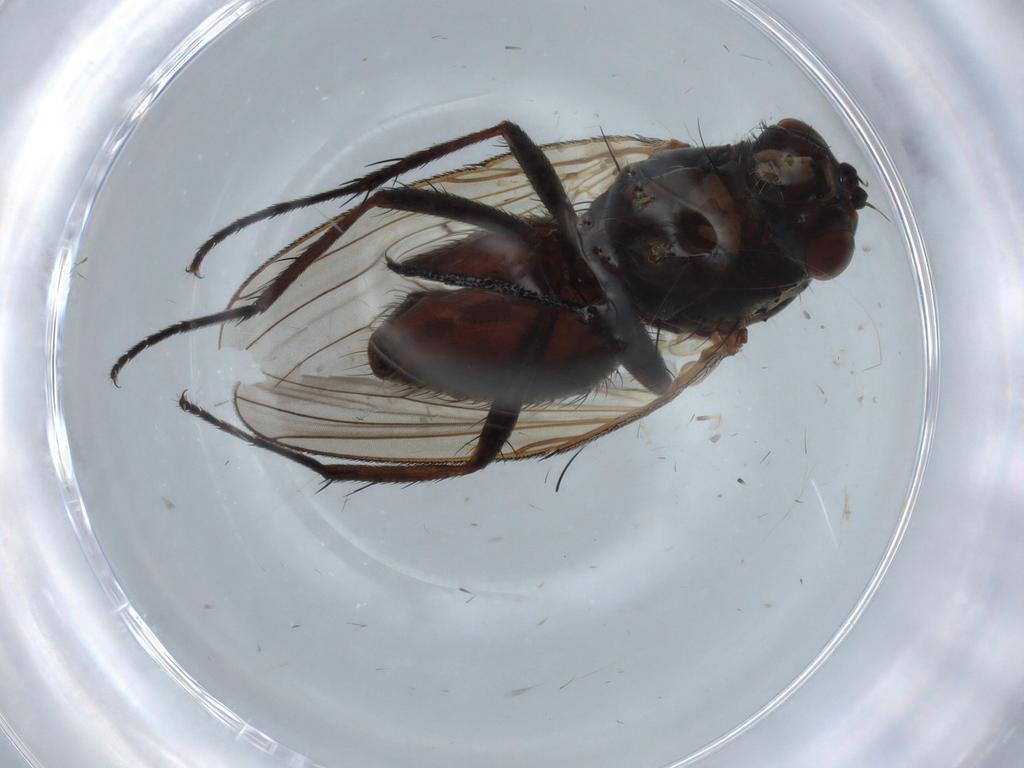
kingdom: Animalia
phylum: Arthropoda
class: Insecta
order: Diptera
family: Anthomyiidae
